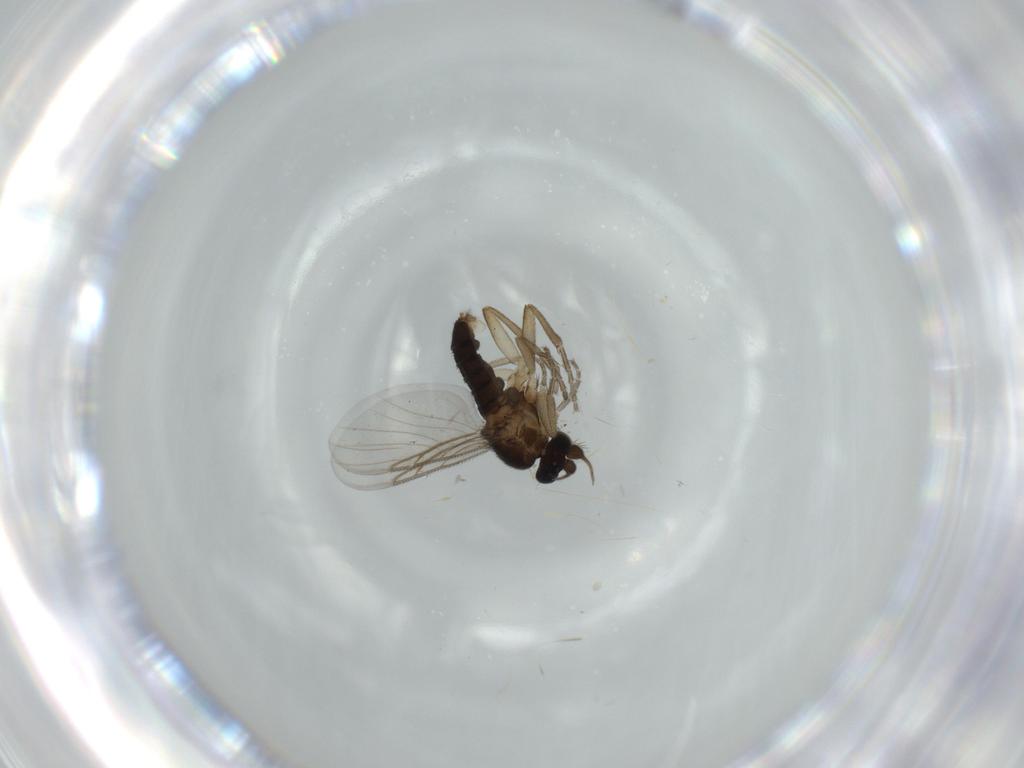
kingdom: Animalia
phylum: Arthropoda
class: Insecta
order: Diptera
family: Phoridae
